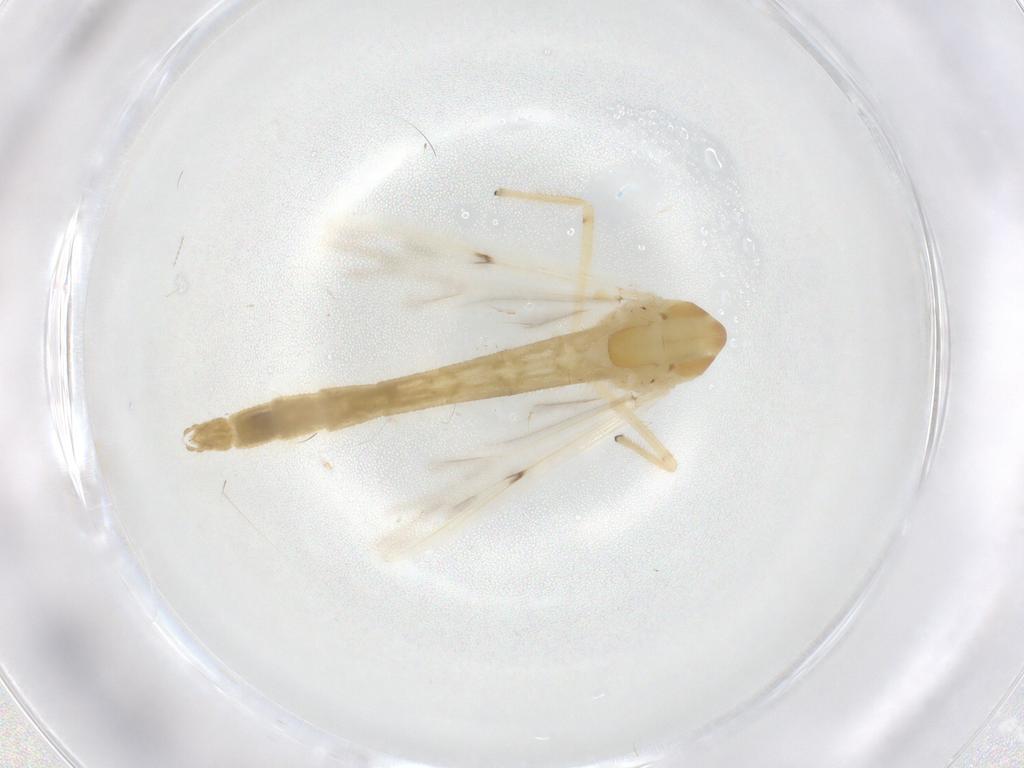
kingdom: Animalia
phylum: Arthropoda
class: Insecta
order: Diptera
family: Chironomidae
